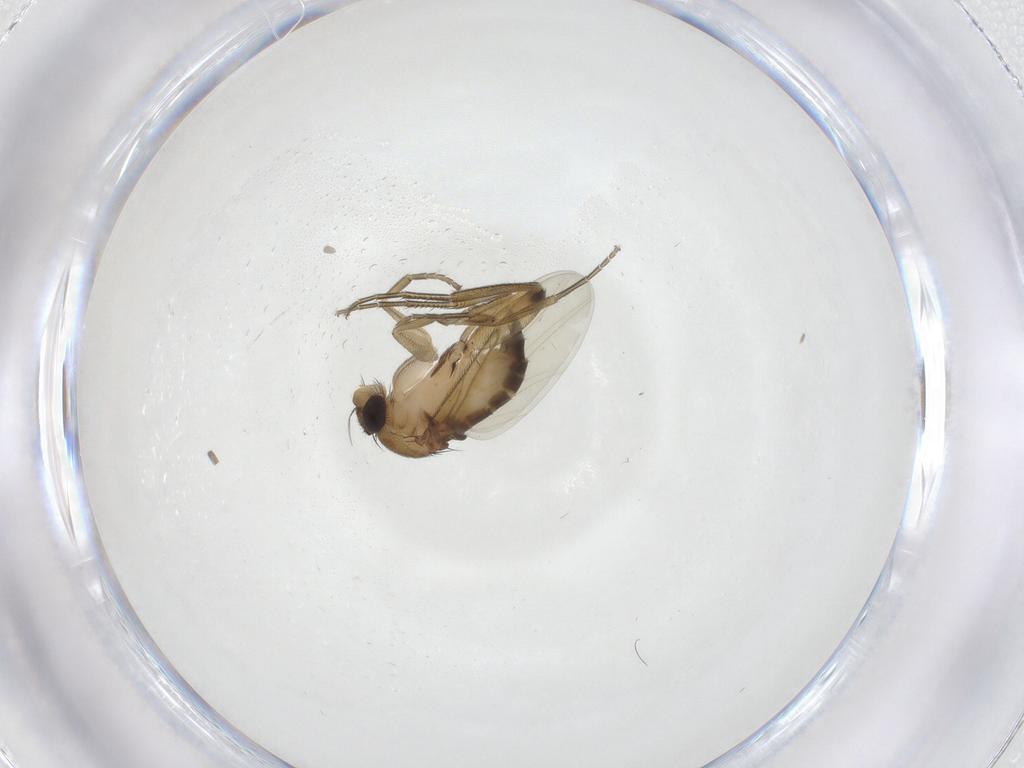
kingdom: Animalia
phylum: Arthropoda
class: Insecta
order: Diptera
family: Phoridae
